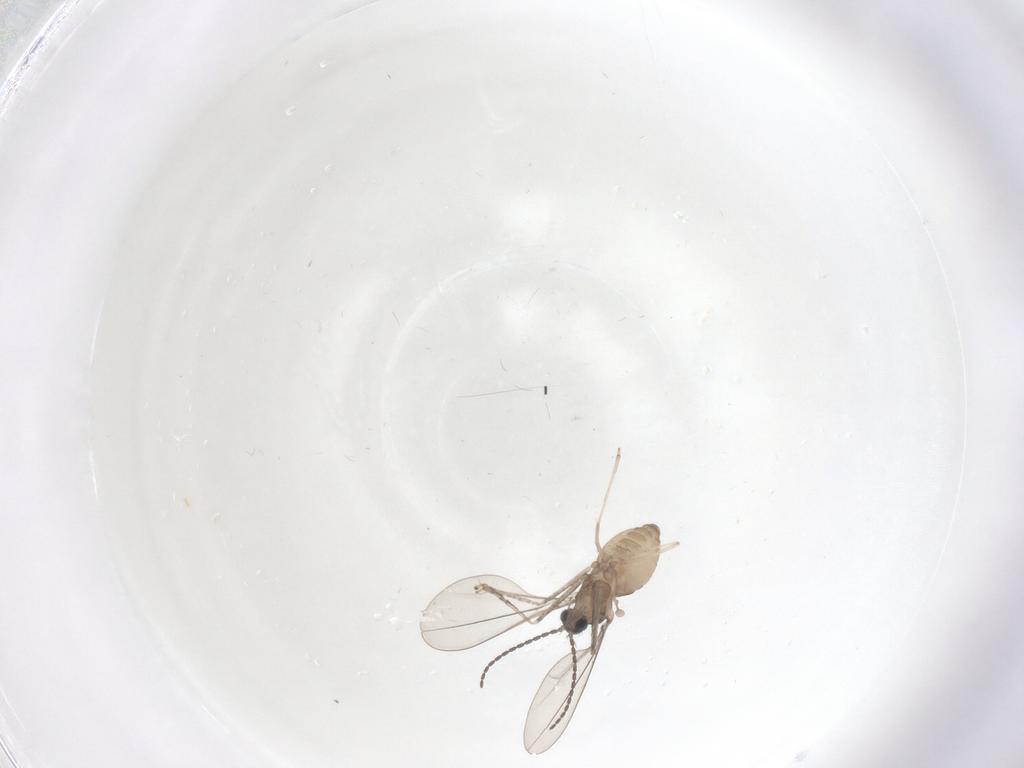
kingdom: Animalia
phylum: Arthropoda
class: Insecta
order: Diptera
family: Cecidomyiidae
